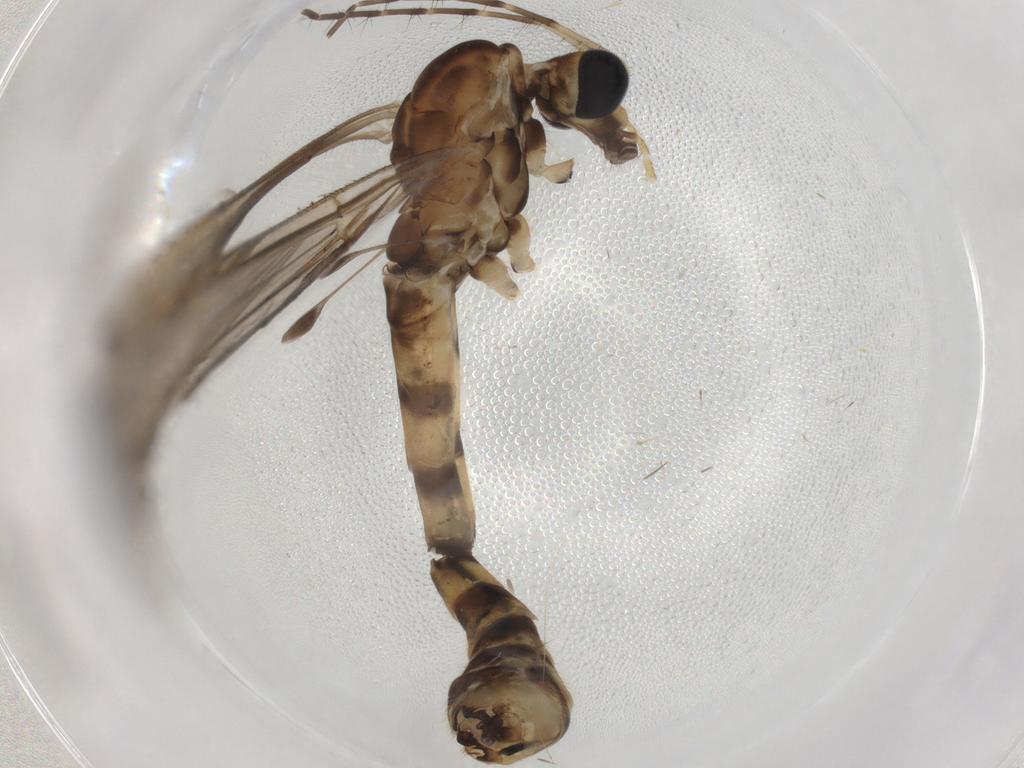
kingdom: Animalia
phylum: Arthropoda
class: Insecta
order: Diptera
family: Cecidomyiidae
